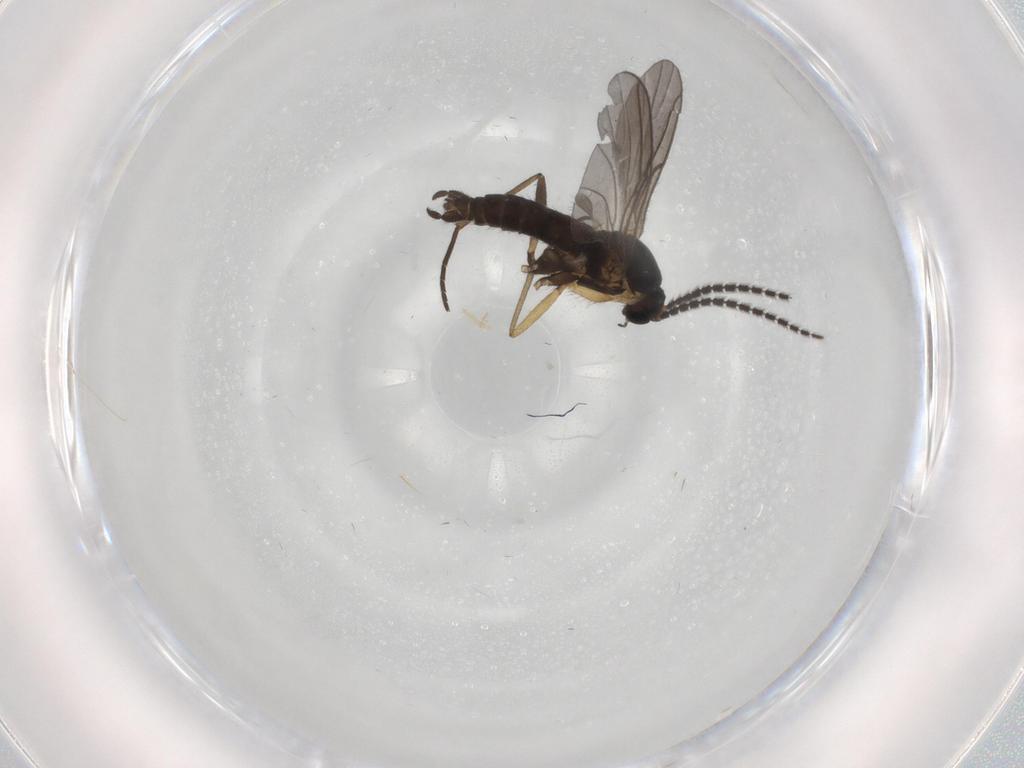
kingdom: Animalia
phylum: Arthropoda
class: Insecta
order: Diptera
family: Sciaridae
